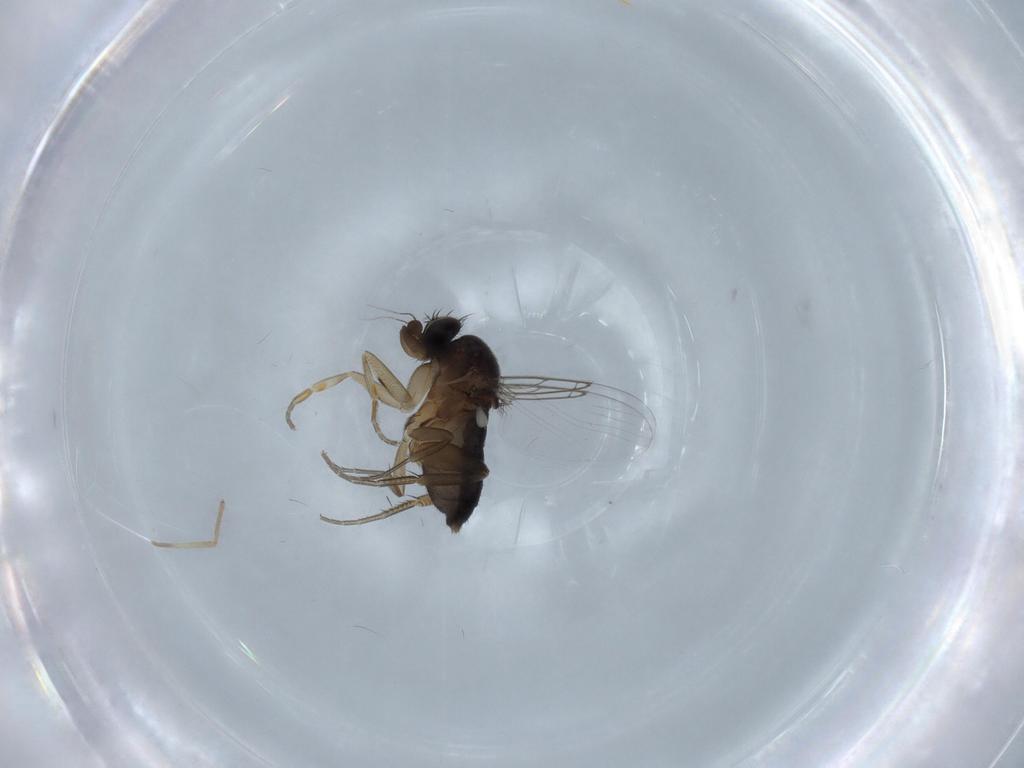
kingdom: Animalia
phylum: Arthropoda
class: Insecta
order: Diptera
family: Phoridae
